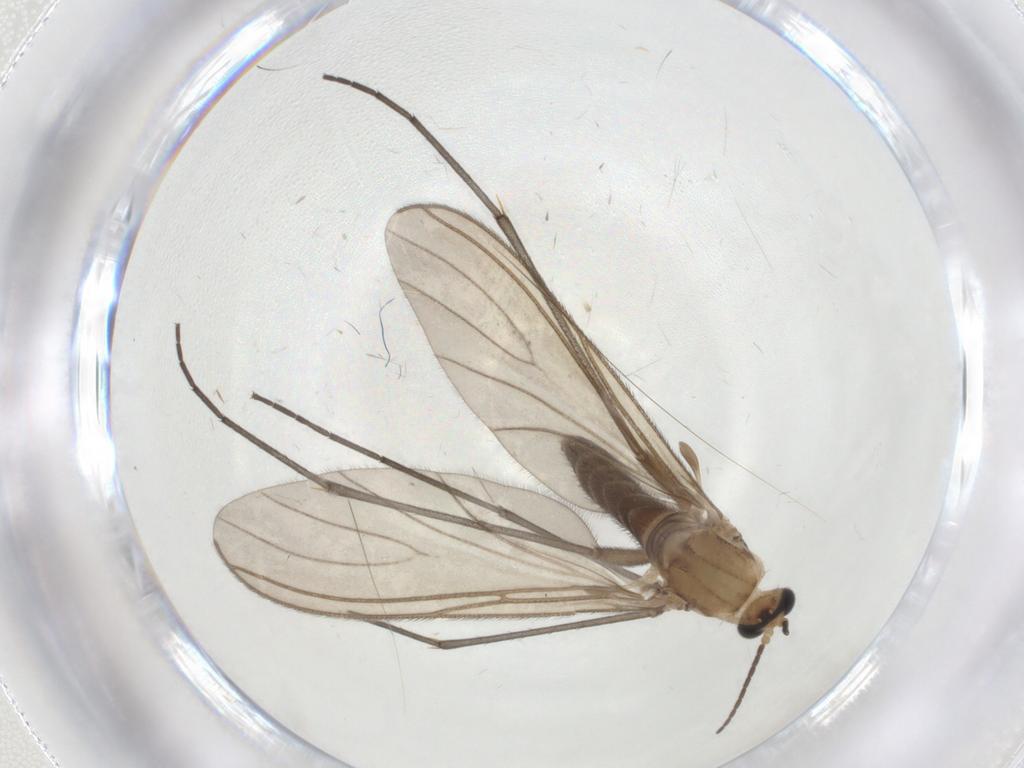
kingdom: Animalia
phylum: Arthropoda
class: Insecta
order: Diptera
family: Sciaridae
